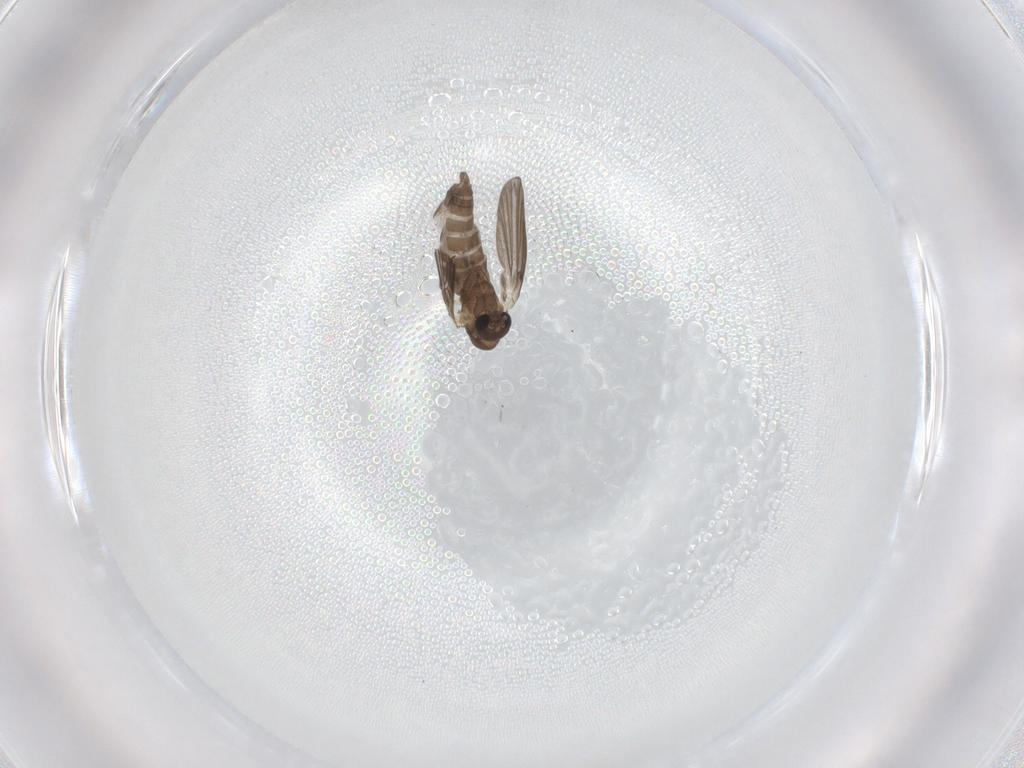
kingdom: Animalia
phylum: Arthropoda
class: Insecta
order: Diptera
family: Ceratopogonidae
